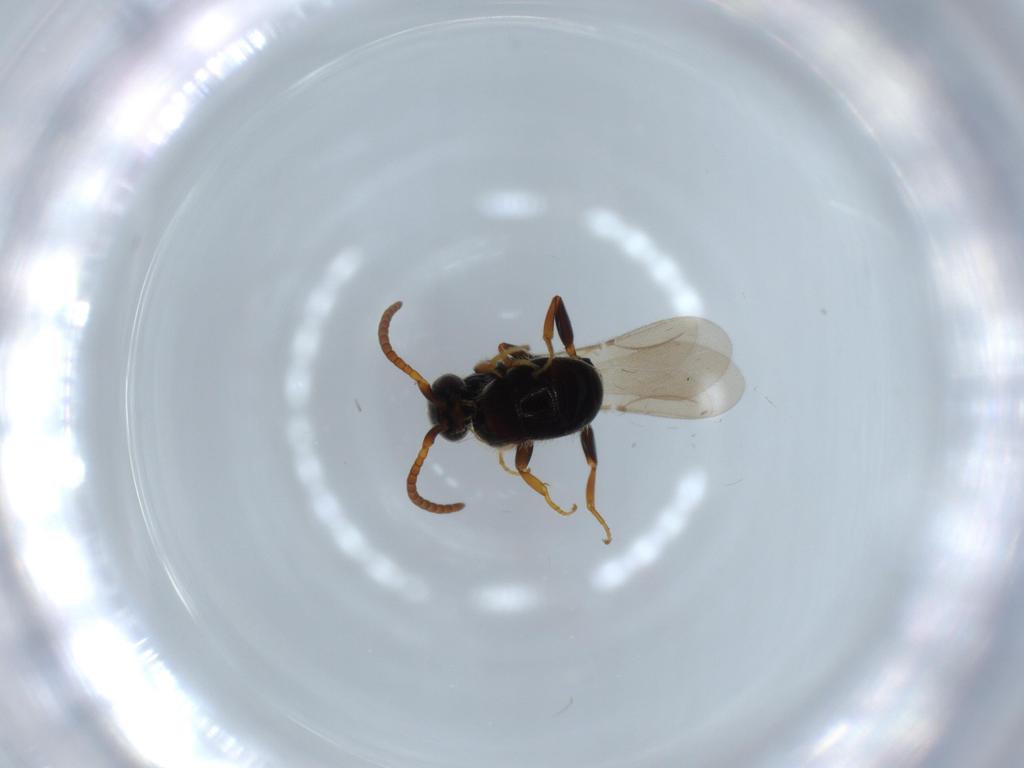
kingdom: Animalia
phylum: Arthropoda
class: Insecta
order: Hymenoptera
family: Bethylidae
